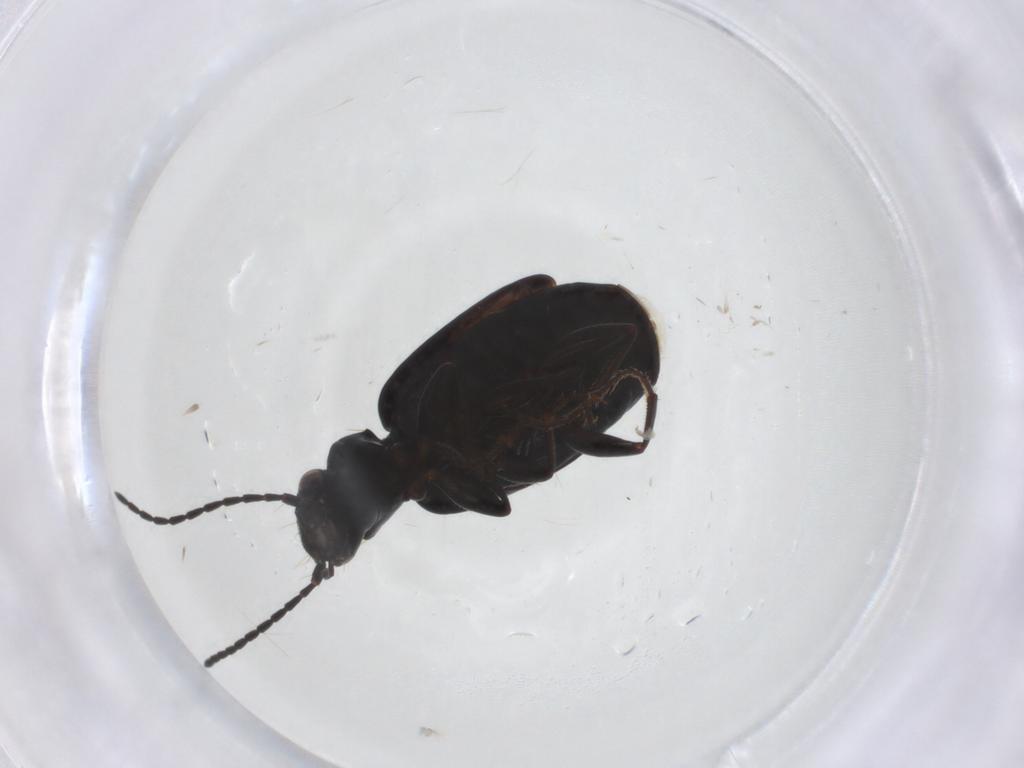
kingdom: Animalia
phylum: Arthropoda
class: Insecta
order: Coleoptera
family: Carabidae
